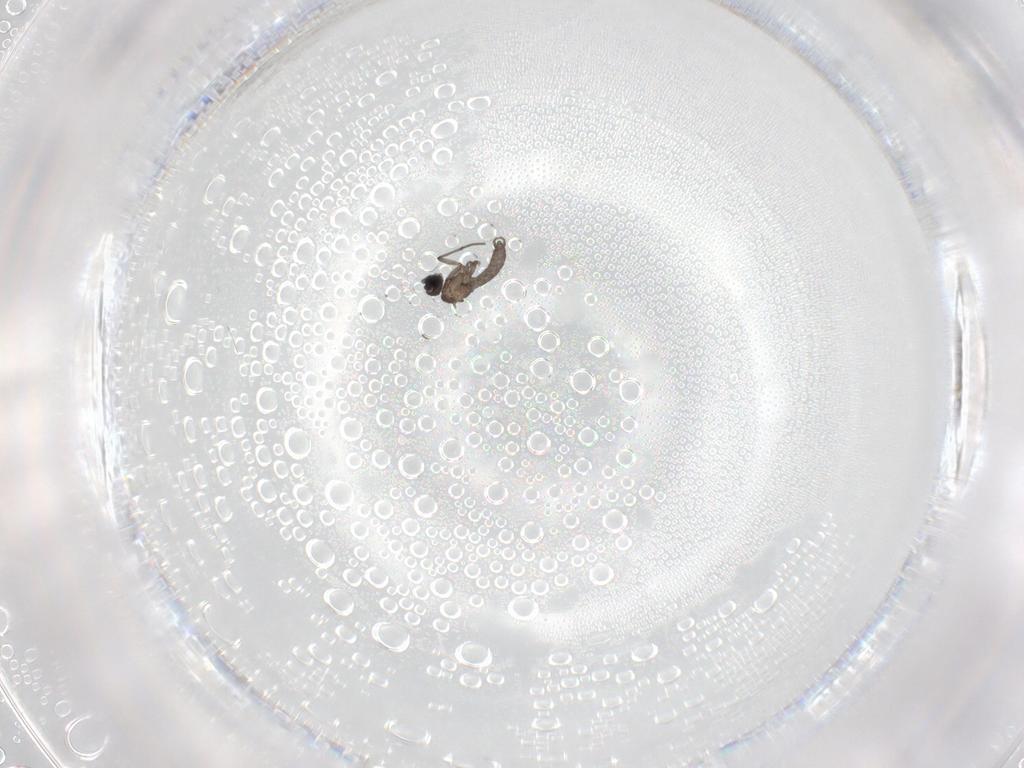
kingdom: Animalia
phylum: Arthropoda
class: Insecta
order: Diptera
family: Sciaridae
